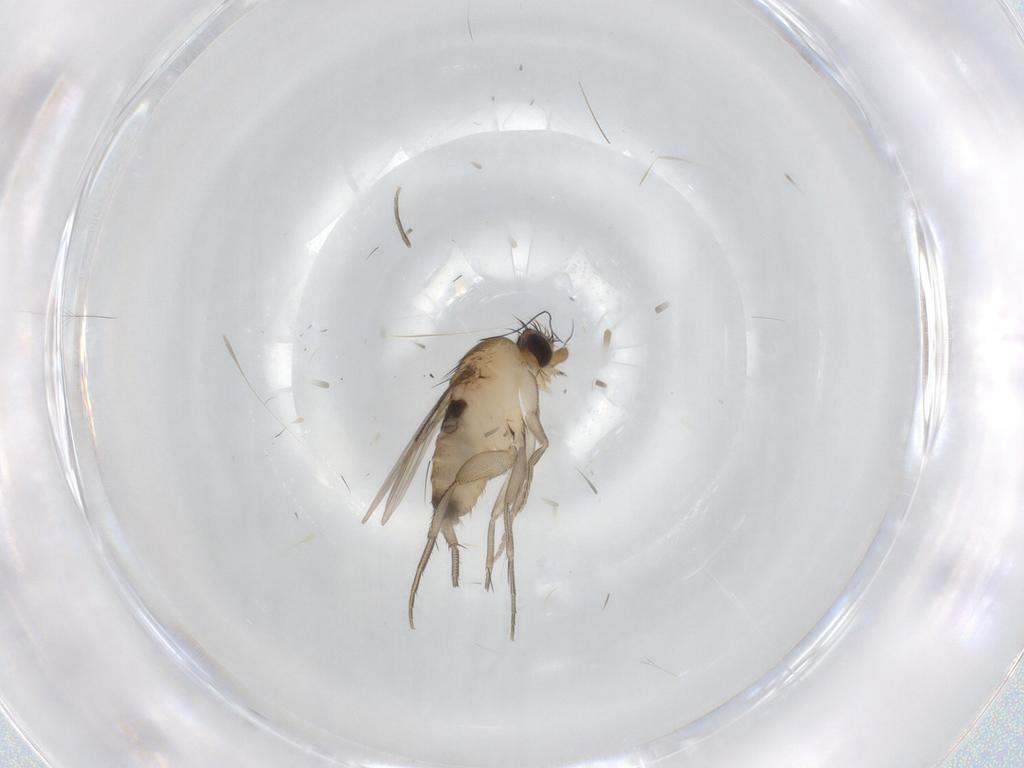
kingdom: Animalia
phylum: Arthropoda
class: Insecta
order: Diptera
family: Phoridae
